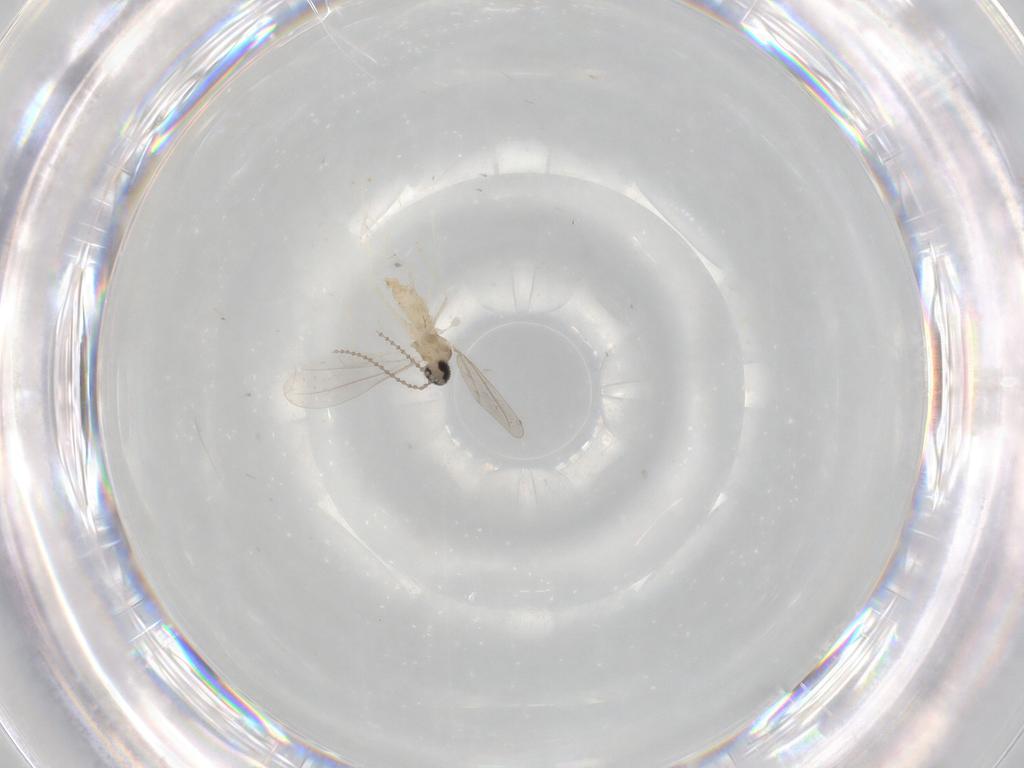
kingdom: Animalia
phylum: Arthropoda
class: Insecta
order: Diptera
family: Cecidomyiidae
